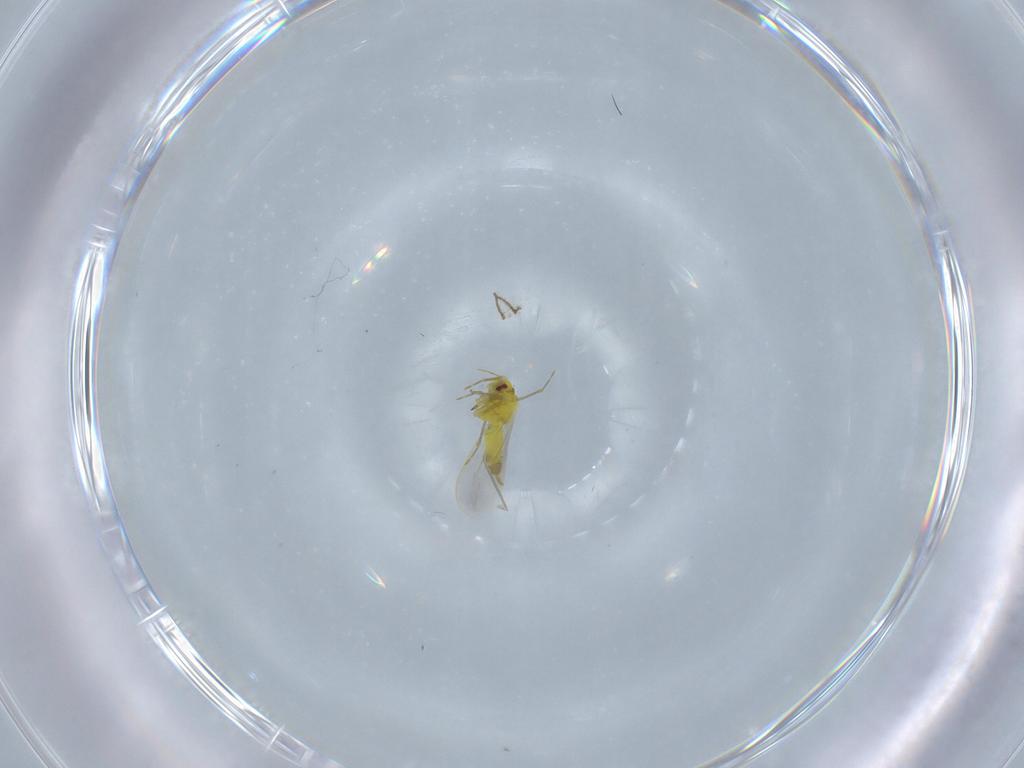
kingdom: Animalia
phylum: Arthropoda
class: Insecta
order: Hemiptera
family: Aleyrodidae
